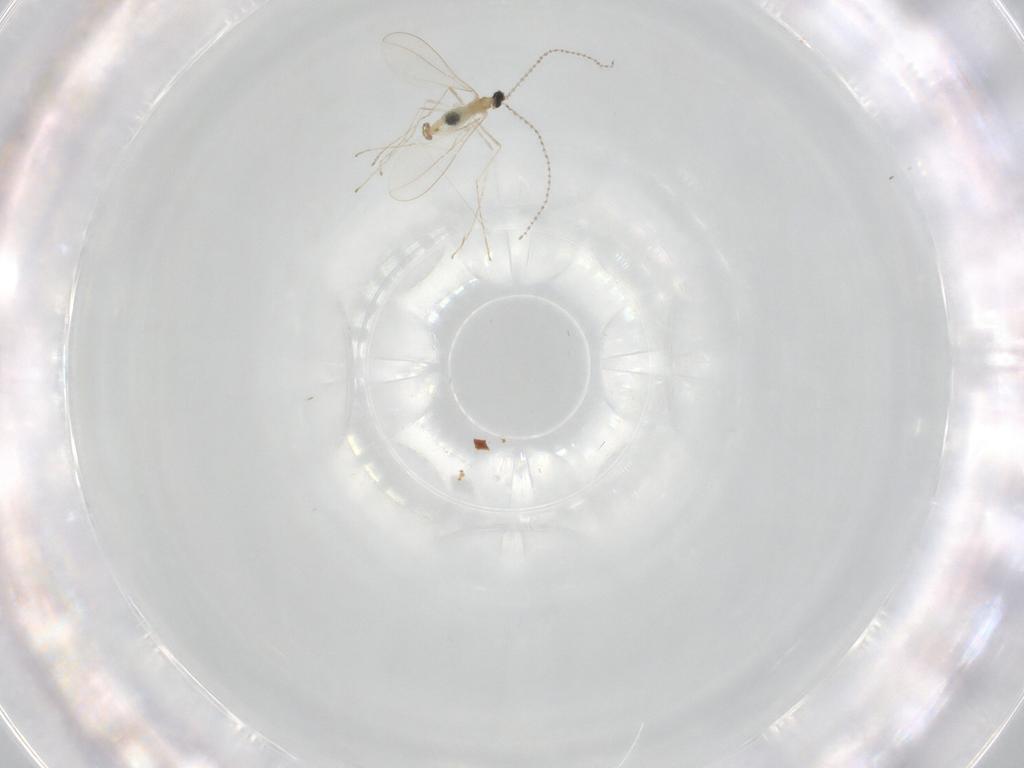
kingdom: Animalia
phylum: Arthropoda
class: Insecta
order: Diptera
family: Cecidomyiidae
